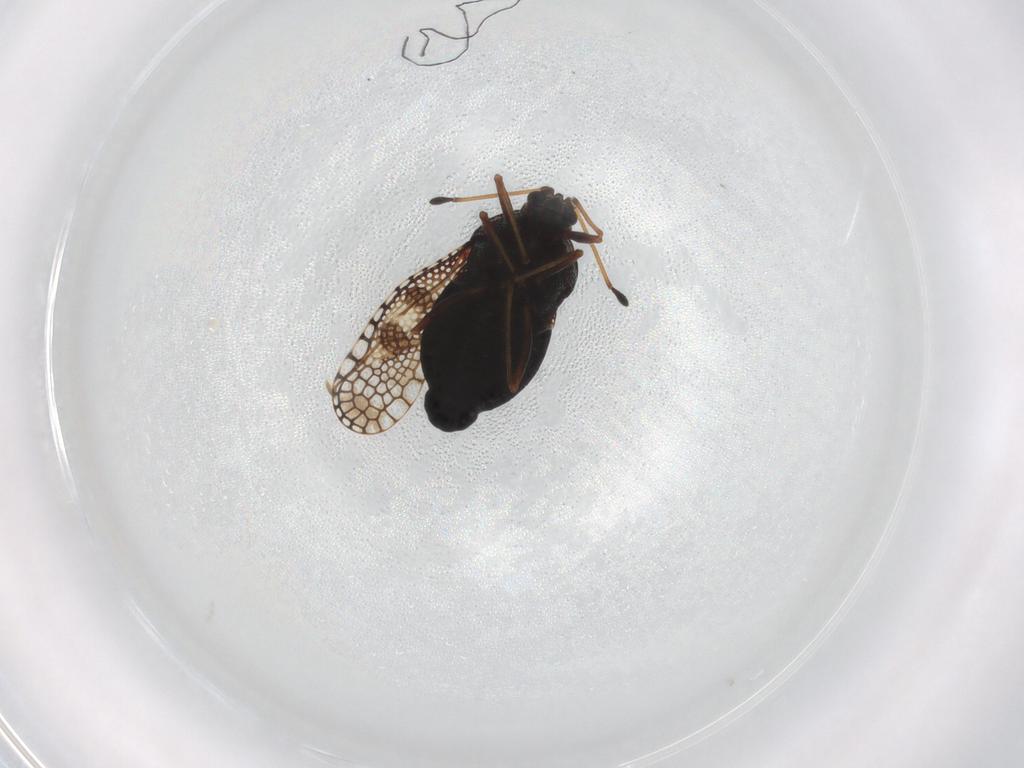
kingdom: Animalia
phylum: Arthropoda
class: Insecta
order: Hemiptera
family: Tingidae
